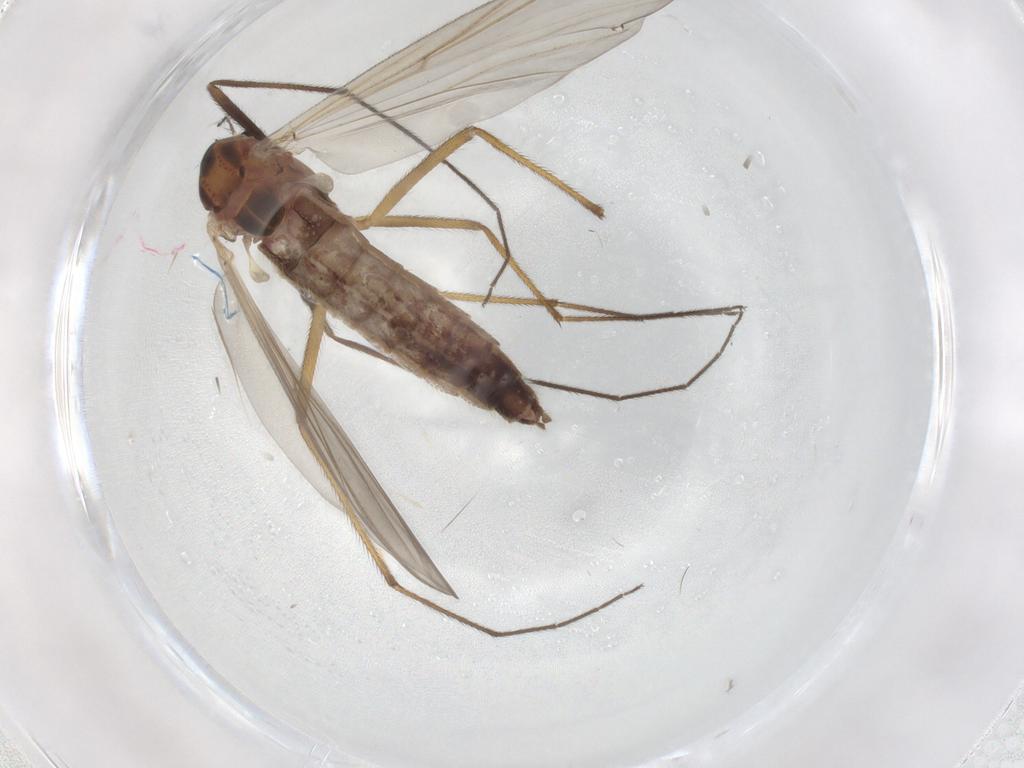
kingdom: Animalia
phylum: Arthropoda
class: Insecta
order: Diptera
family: Chironomidae
